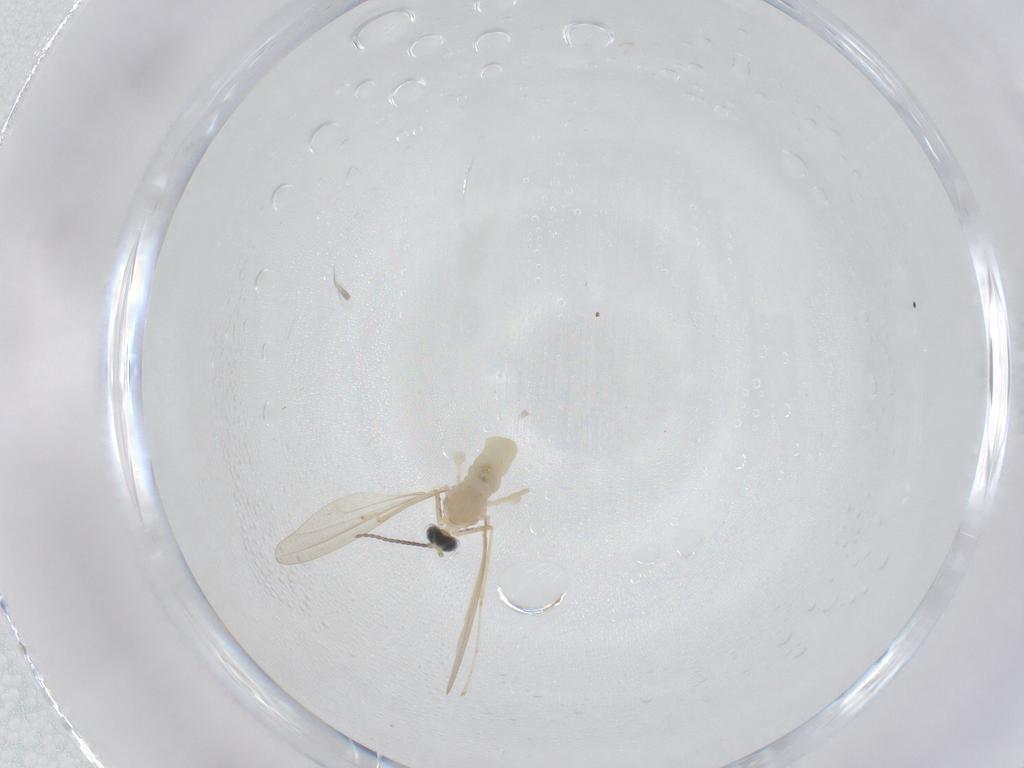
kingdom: Animalia
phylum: Arthropoda
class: Insecta
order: Diptera
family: Cecidomyiidae
